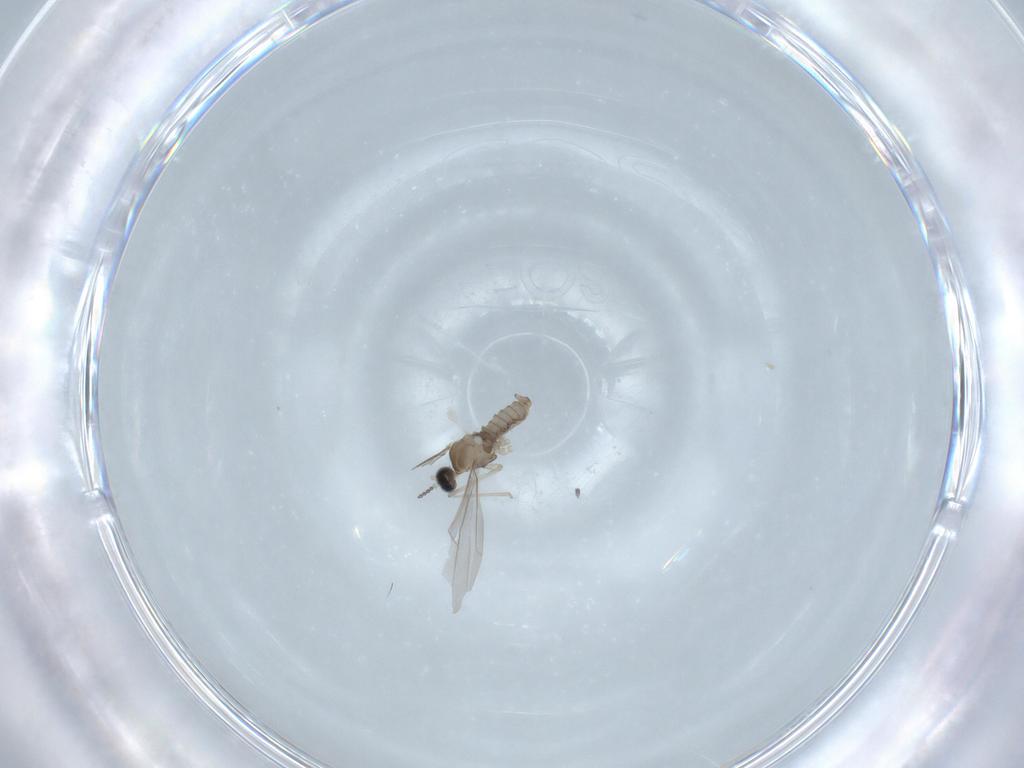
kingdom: Animalia
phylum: Arthropoda
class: Insecta
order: Diptera
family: Cecidomyiidae
